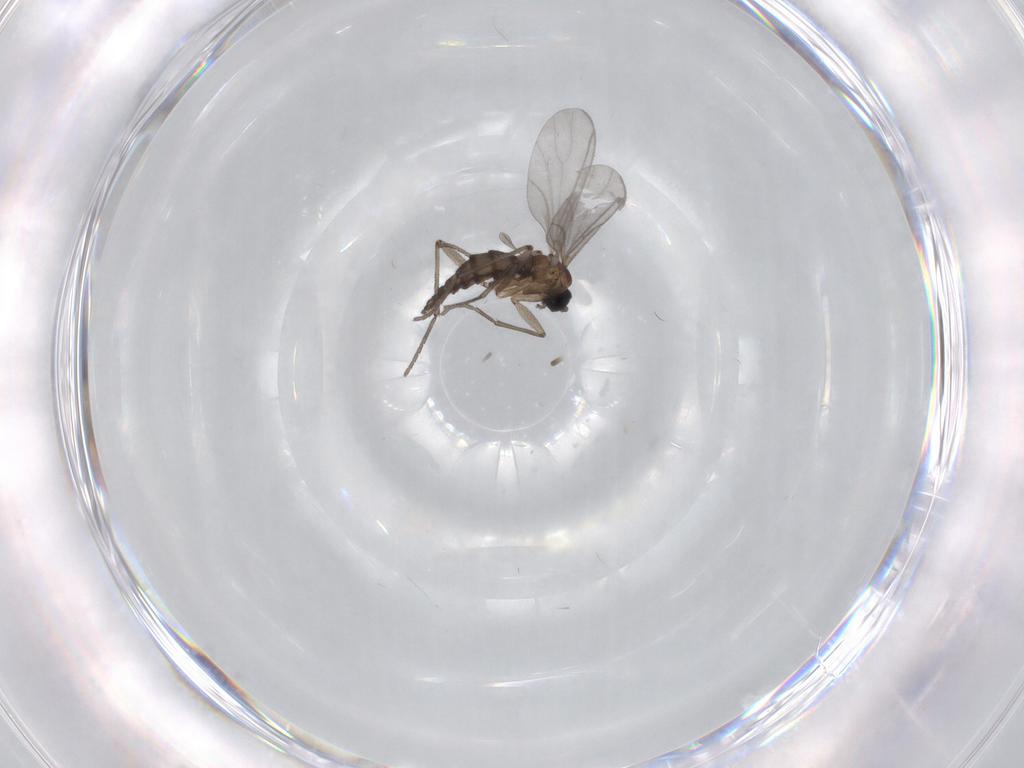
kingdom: Animalia
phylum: Arthropoda
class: Insecta
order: Diptera
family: Sciaridae
